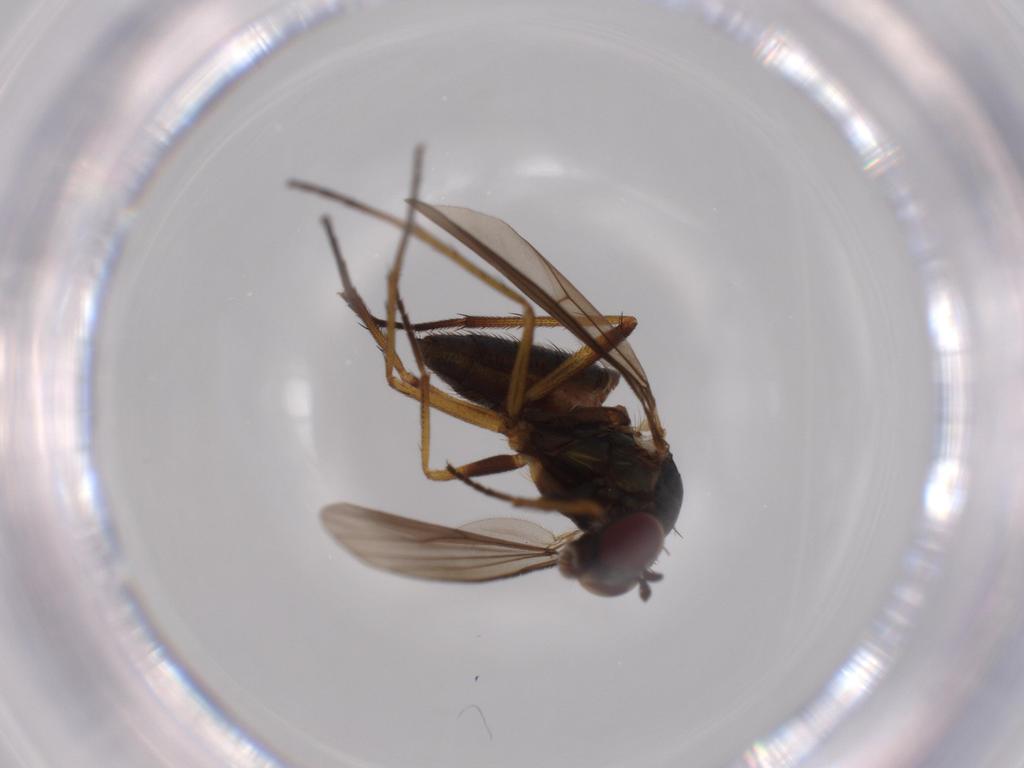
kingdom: Animalia
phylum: Arthropoda
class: Insecta
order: Diptera
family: Dolichopodidae
